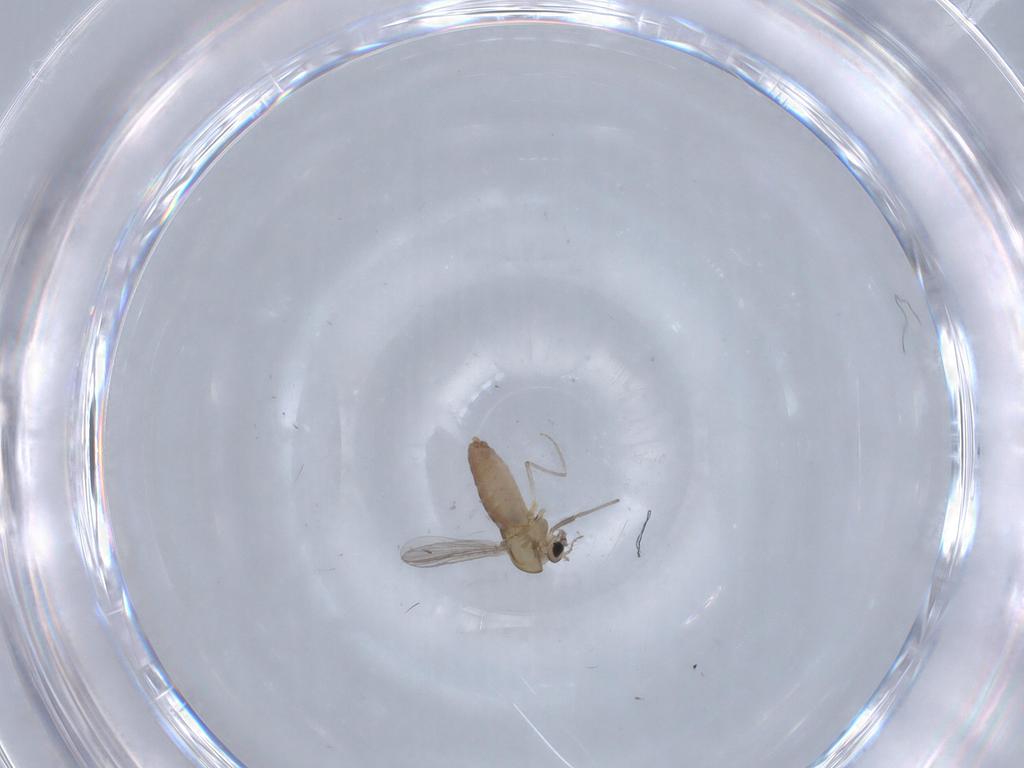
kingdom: Animalia
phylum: Arthropoda
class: Insecta
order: Diptera
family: Chironomidae
